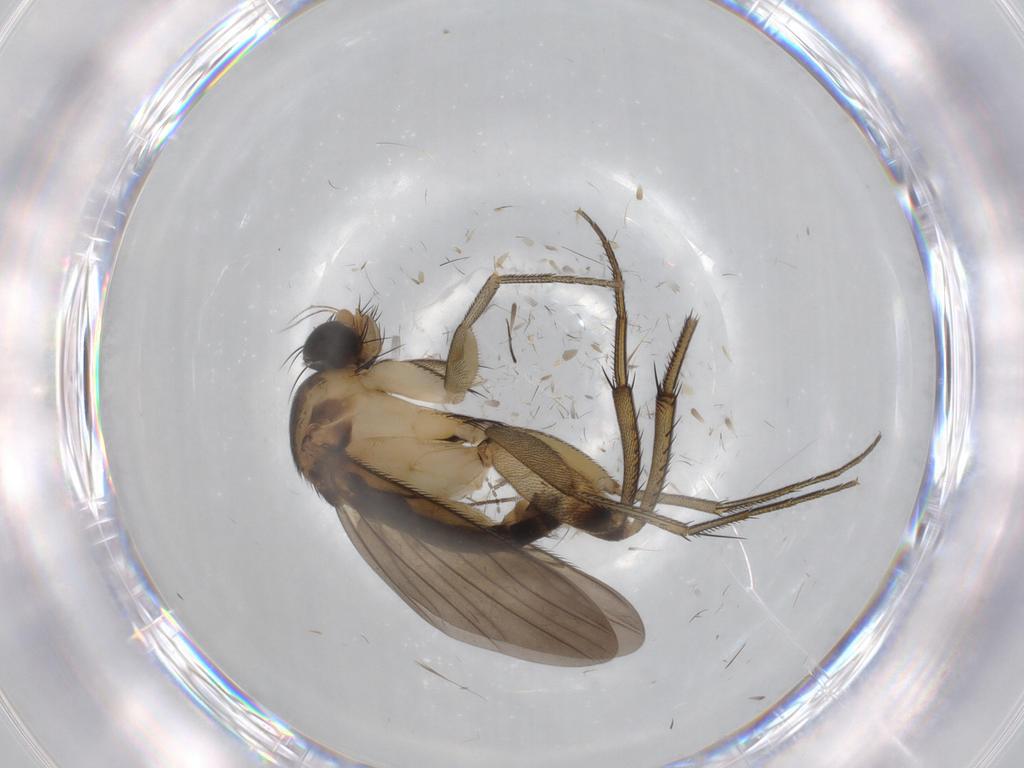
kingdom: Animalia
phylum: Arthropoda
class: Insecta
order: Diptera
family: Phoridae
